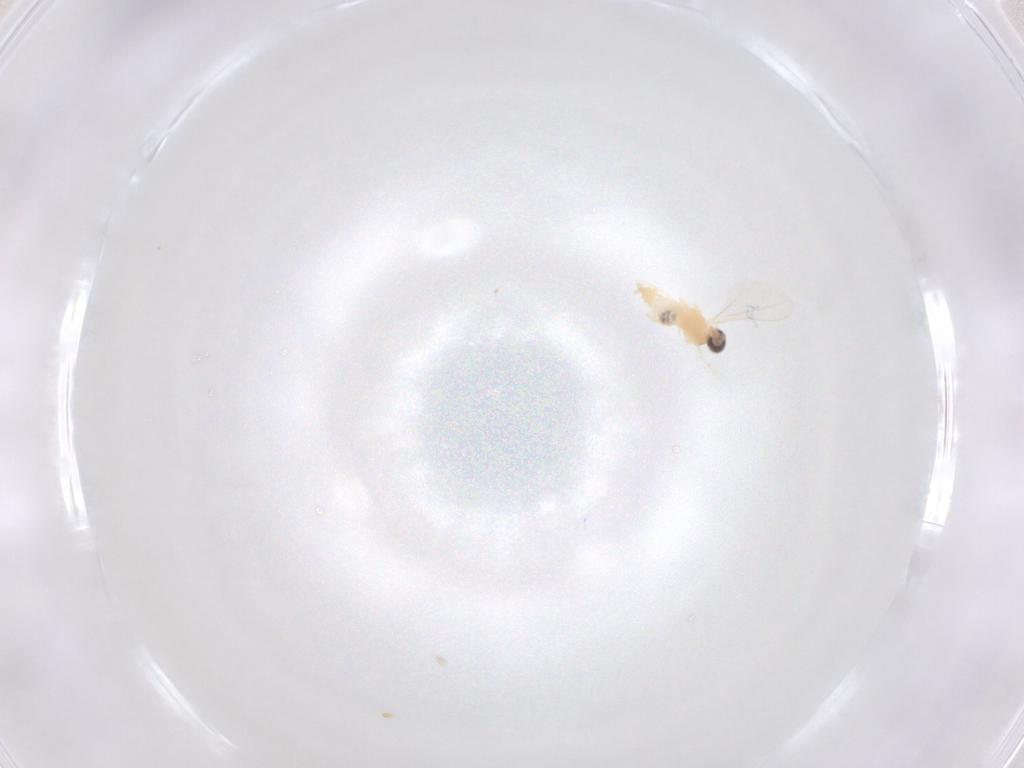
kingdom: Animalia
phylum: Arthropoda
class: Insecta
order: Diptera
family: Cecidomyiidae
